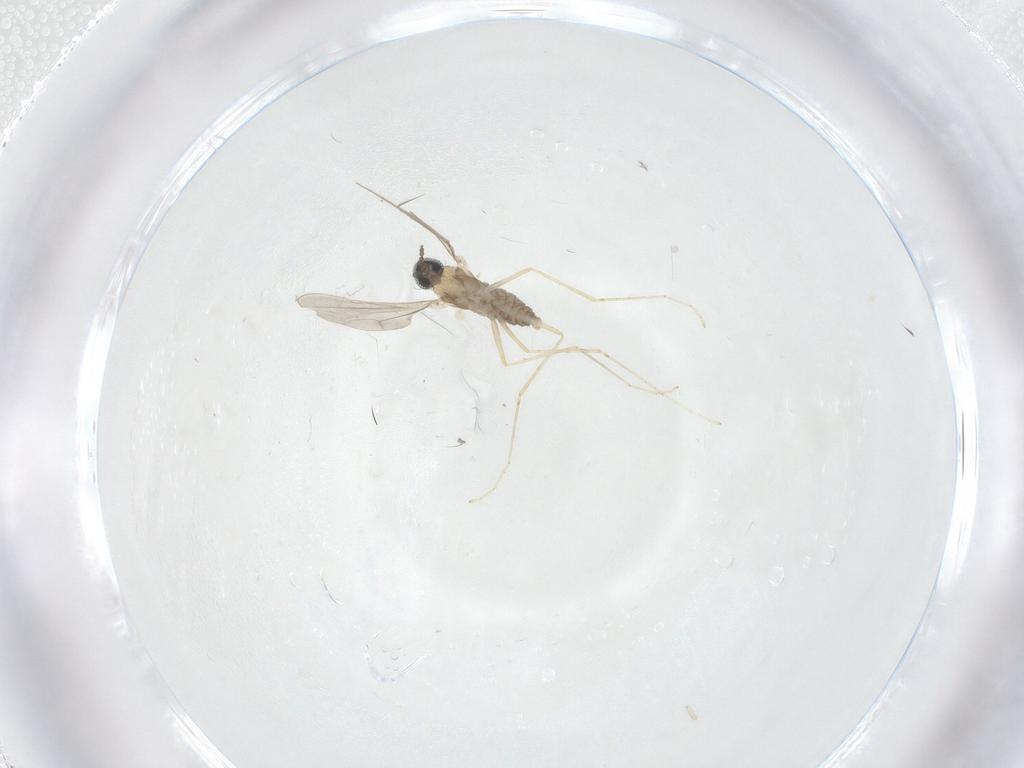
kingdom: Animalia
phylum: Arthropoda
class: Insecta
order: Diptera
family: Cecidomyiidae
